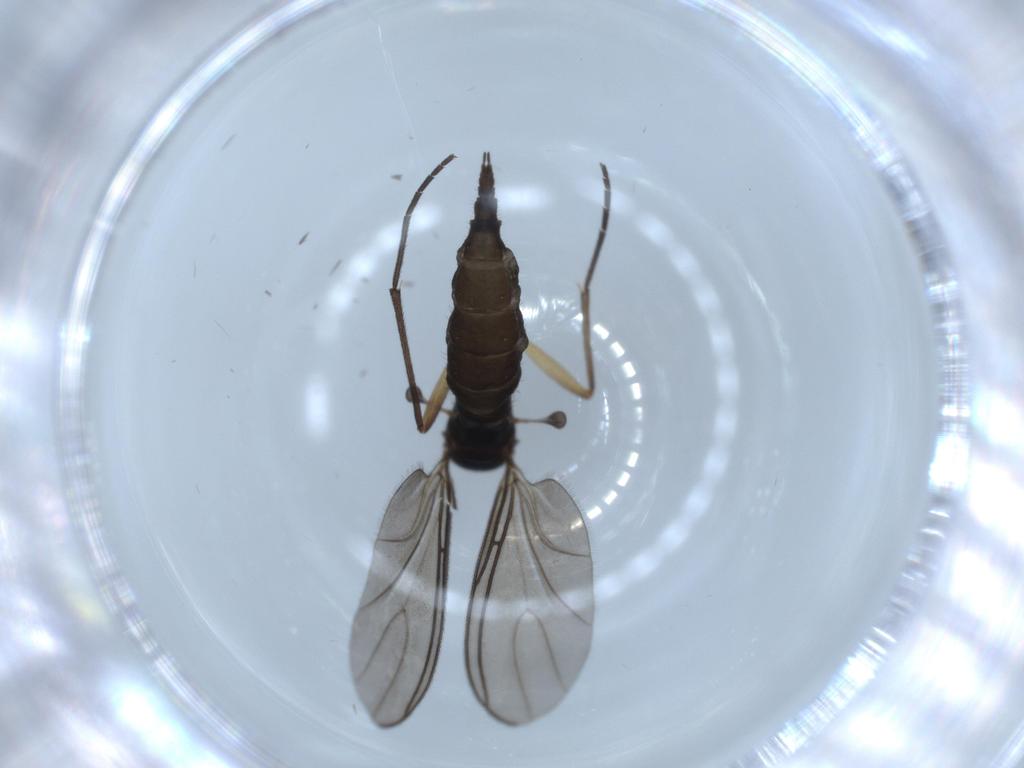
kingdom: Animalia
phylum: Arthropoda
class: Insecta
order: Diptera
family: Sciaridae
